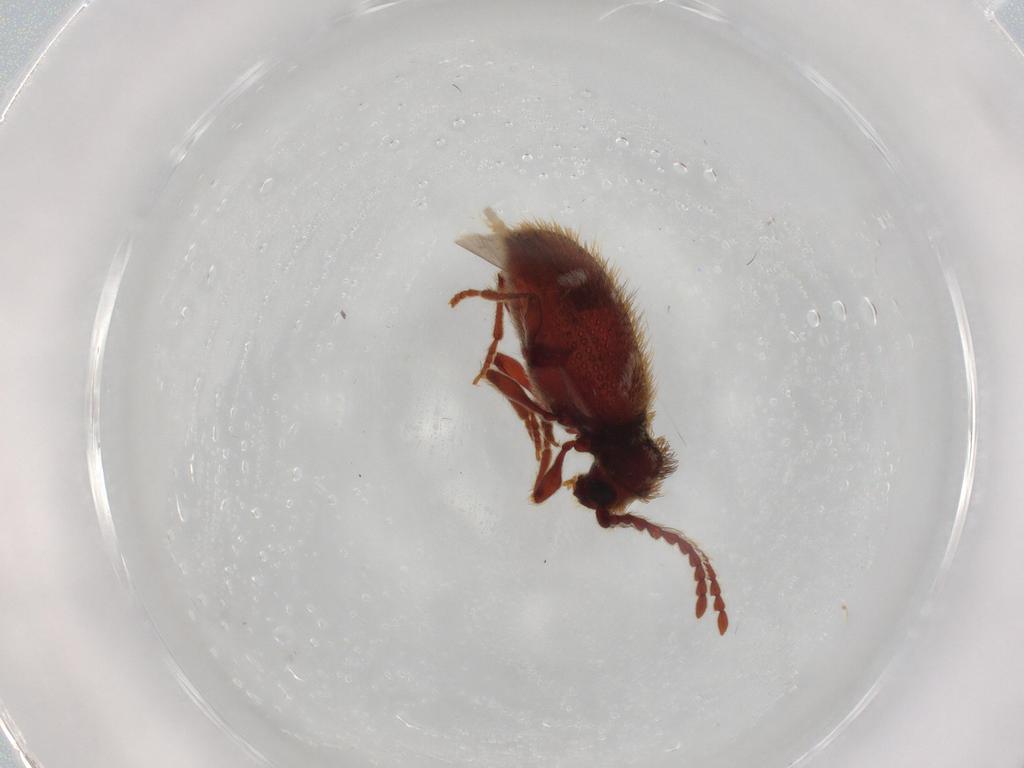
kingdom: Animalia
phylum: Arthropoda
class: Insecta
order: Coleoptera
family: Ptinidae
